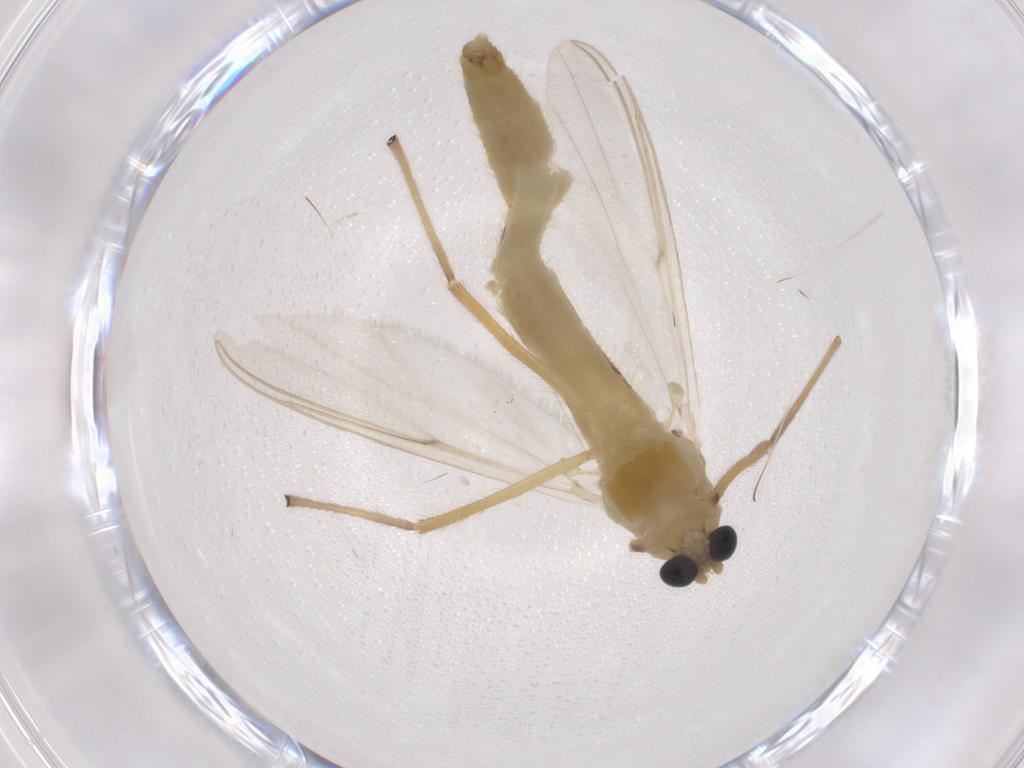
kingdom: Animalia
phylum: Arthropoda
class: Insecta
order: Diptera
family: Chironomidae
